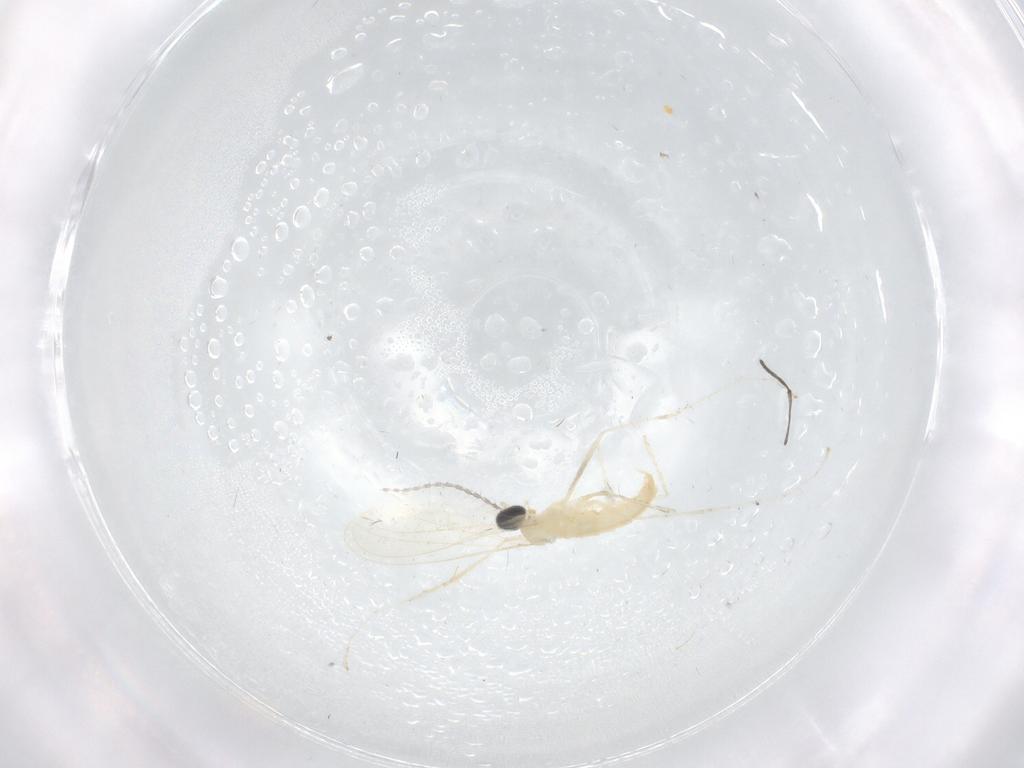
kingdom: Animalia
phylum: Arthropoda
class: Insecta
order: Diptera
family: Cecidomyiidae
